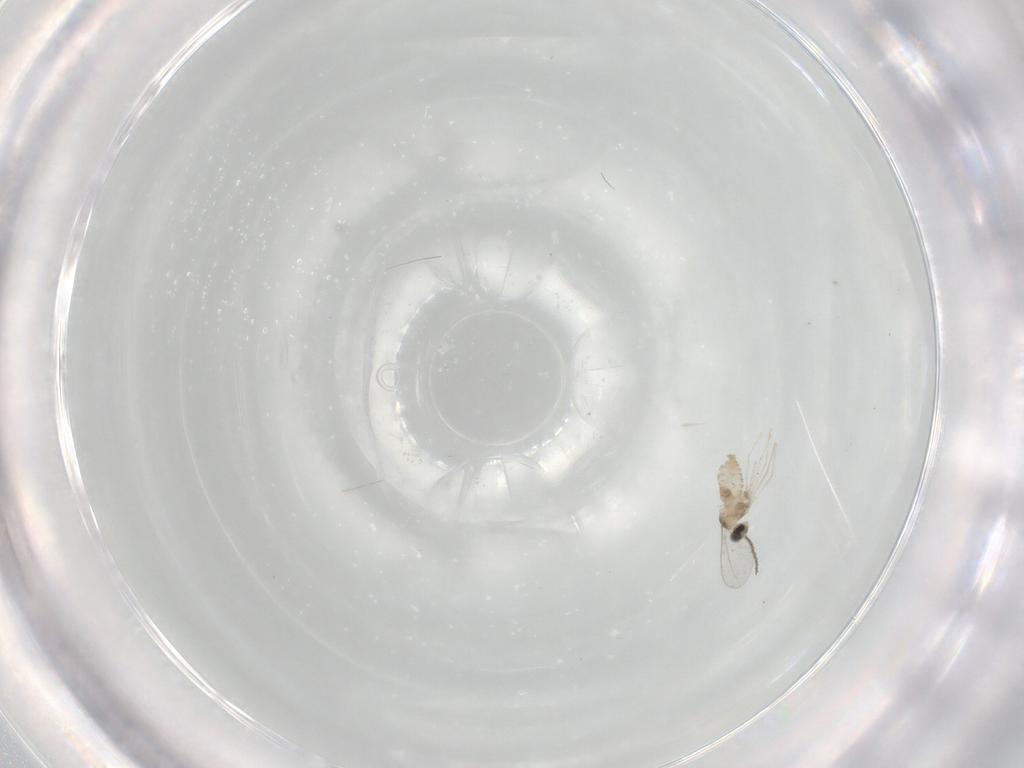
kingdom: Animalia
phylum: Arthropoda
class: Insecta
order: Diptera
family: Cecidomyiidae
